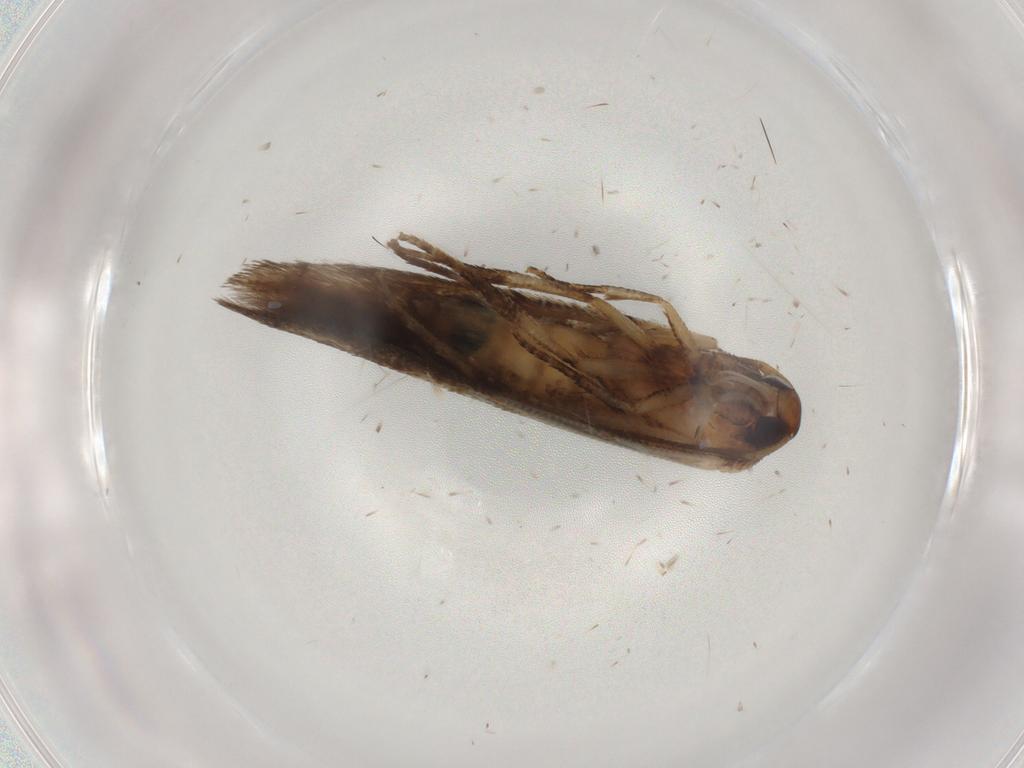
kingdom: Animalia
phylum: Arthropoda
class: Insecta
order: Lepidoptera
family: Cosmopterigidae
